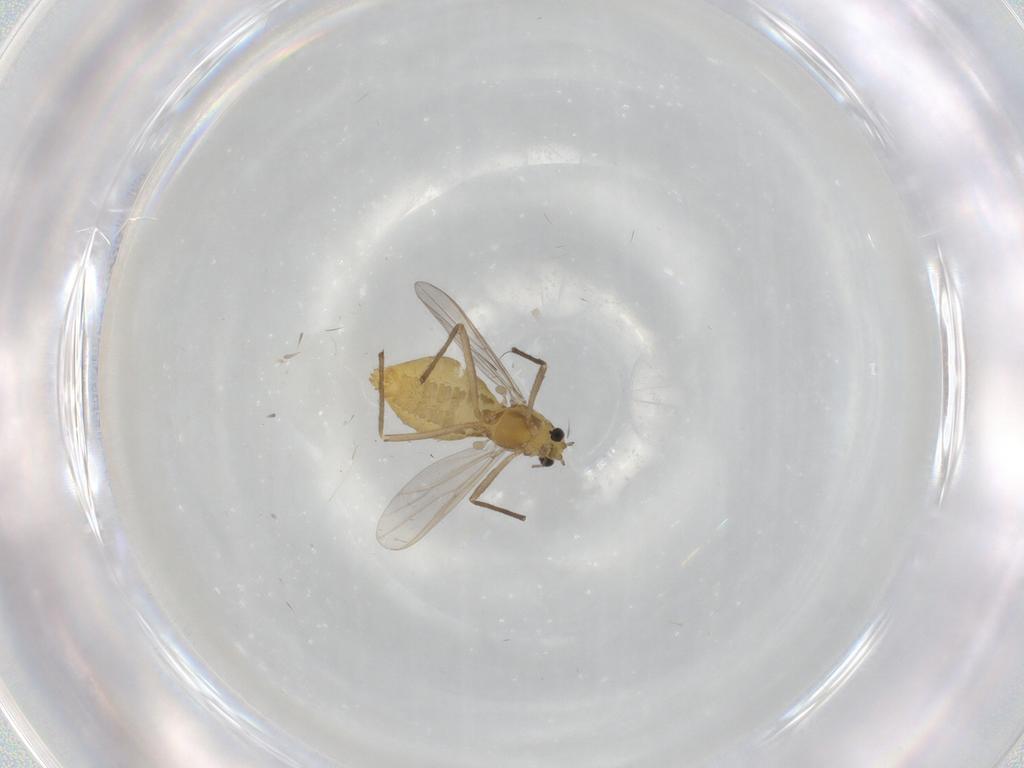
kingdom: Animalia
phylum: Arthropoda
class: Insecta
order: Diptera
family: Chironomidae
